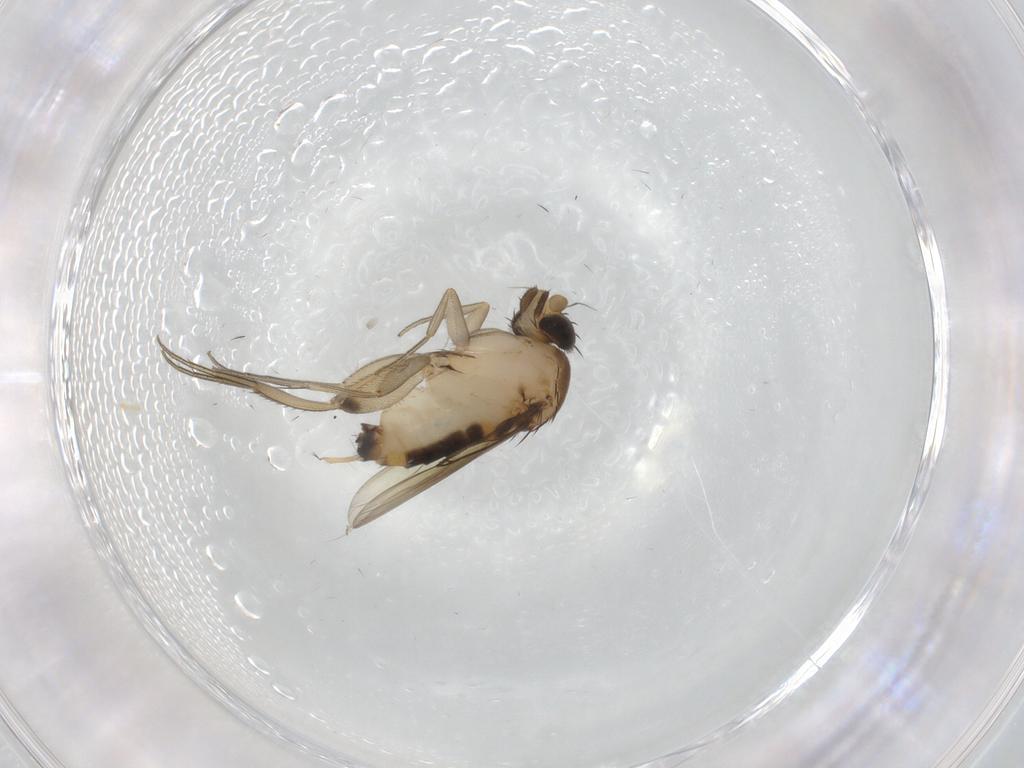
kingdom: Animalia
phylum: Arthropoda
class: Insecta
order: Diptera
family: Phoridae
